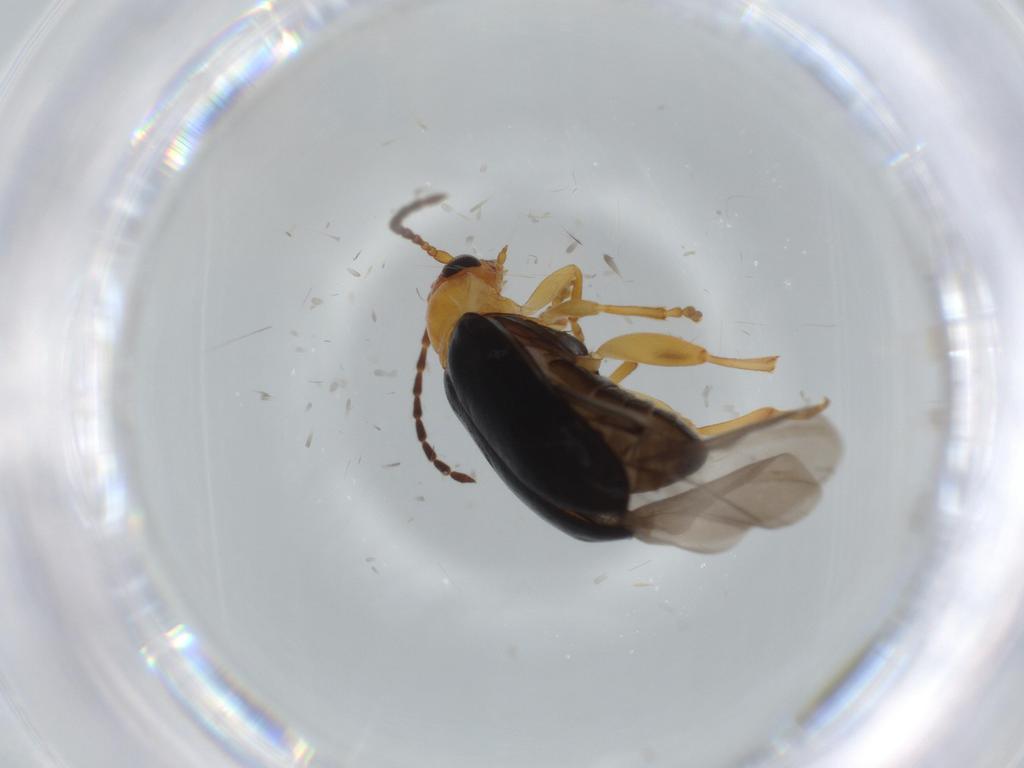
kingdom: Animalia
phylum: Arthropoda
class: Insecta
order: Coleoptera
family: Chrysomelidae
